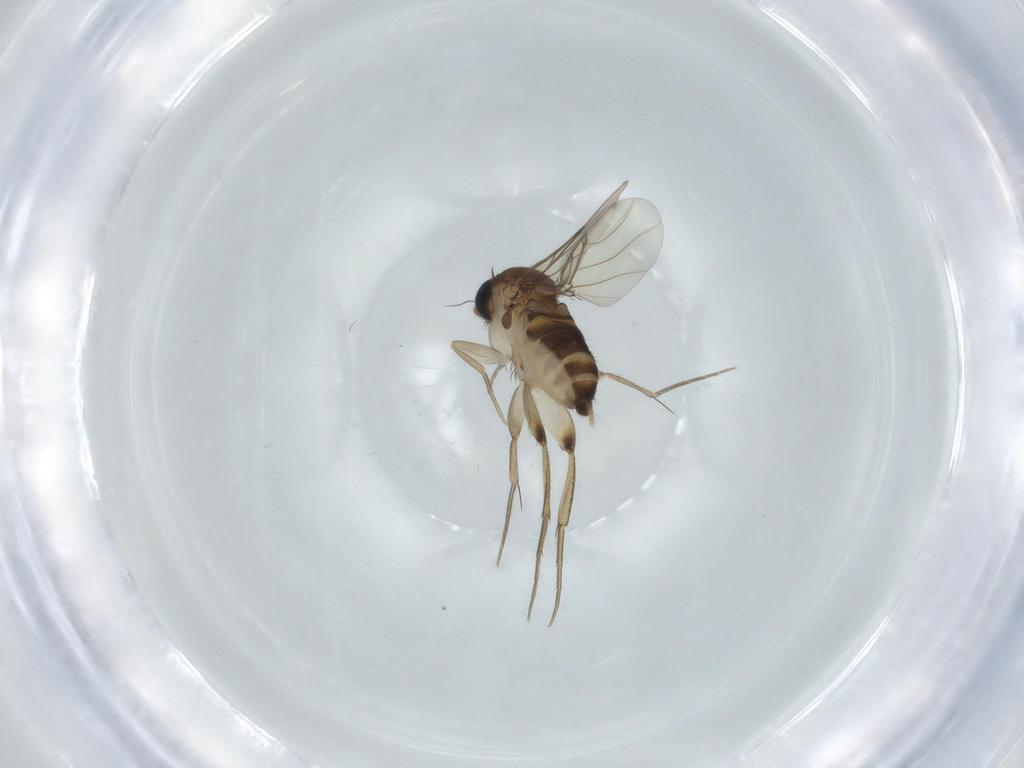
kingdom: Animalia
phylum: Arthropoda
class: Insecta
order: Diptera
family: Phoridae
